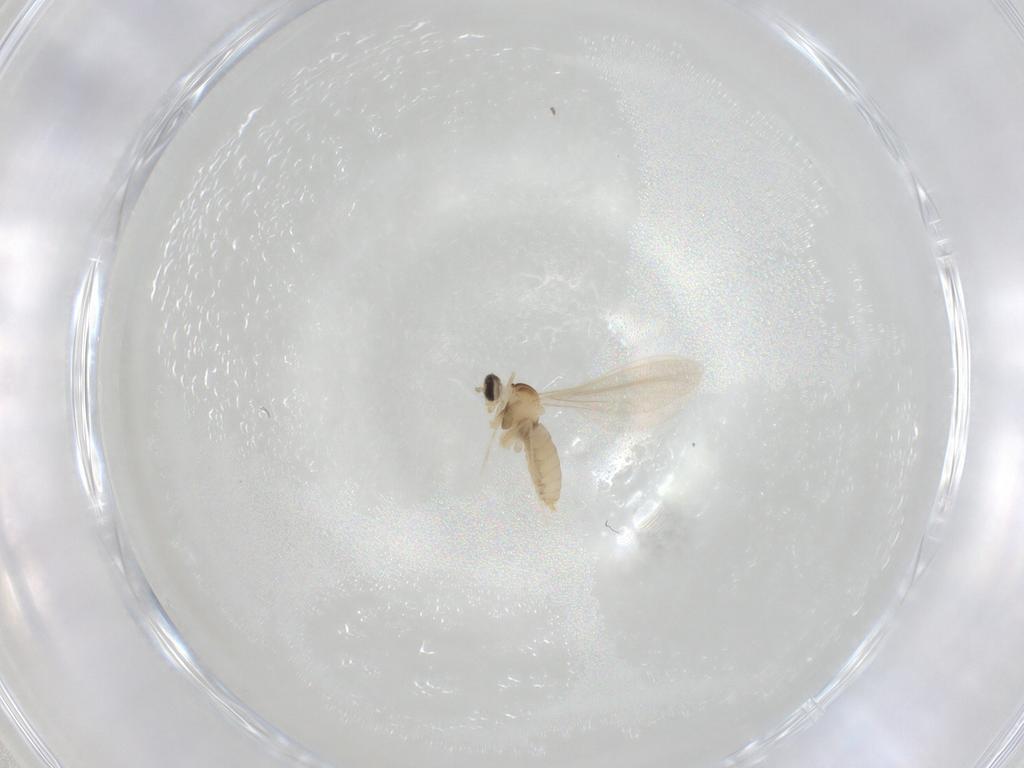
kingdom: Animalia
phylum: Arthropoda
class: Insecta
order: Diptera
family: Cecidomyiidae
